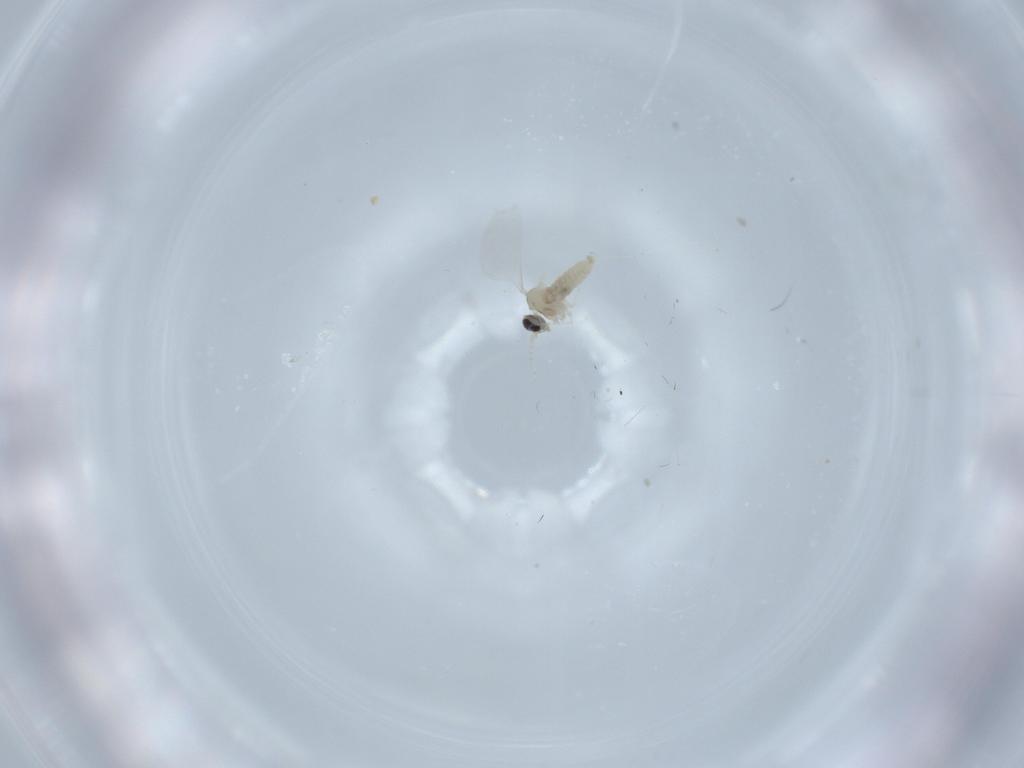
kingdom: Animalia
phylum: Arthropoda
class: Insecta
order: Diptera
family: Cecidomyiidae
